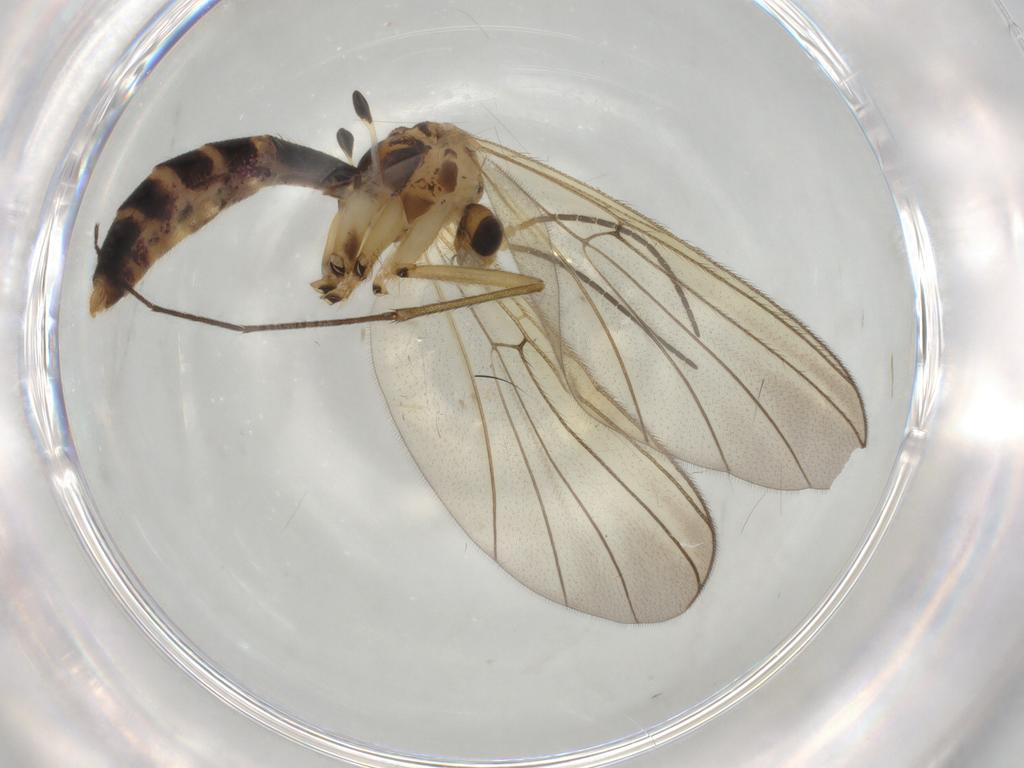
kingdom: Animalia
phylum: Arthropoda
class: Insecta
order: Diptera
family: Mycetophilidae
